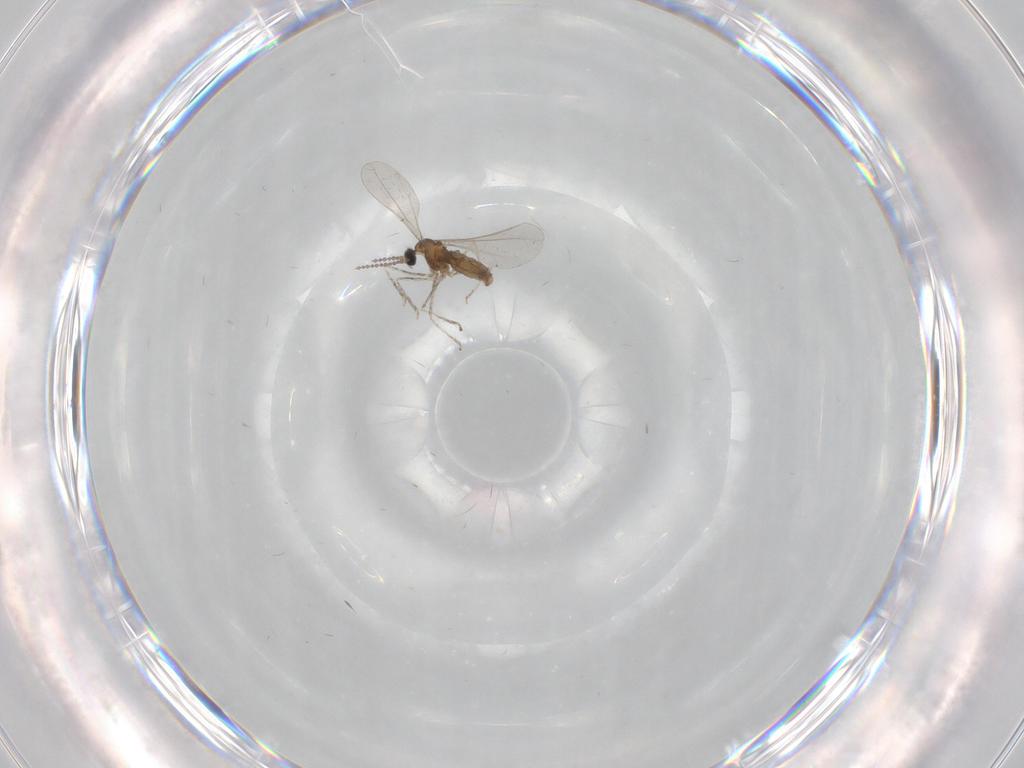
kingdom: Animalia
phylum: Arthropoda
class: Insecta
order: Diptera
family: Cecidomyiidae
